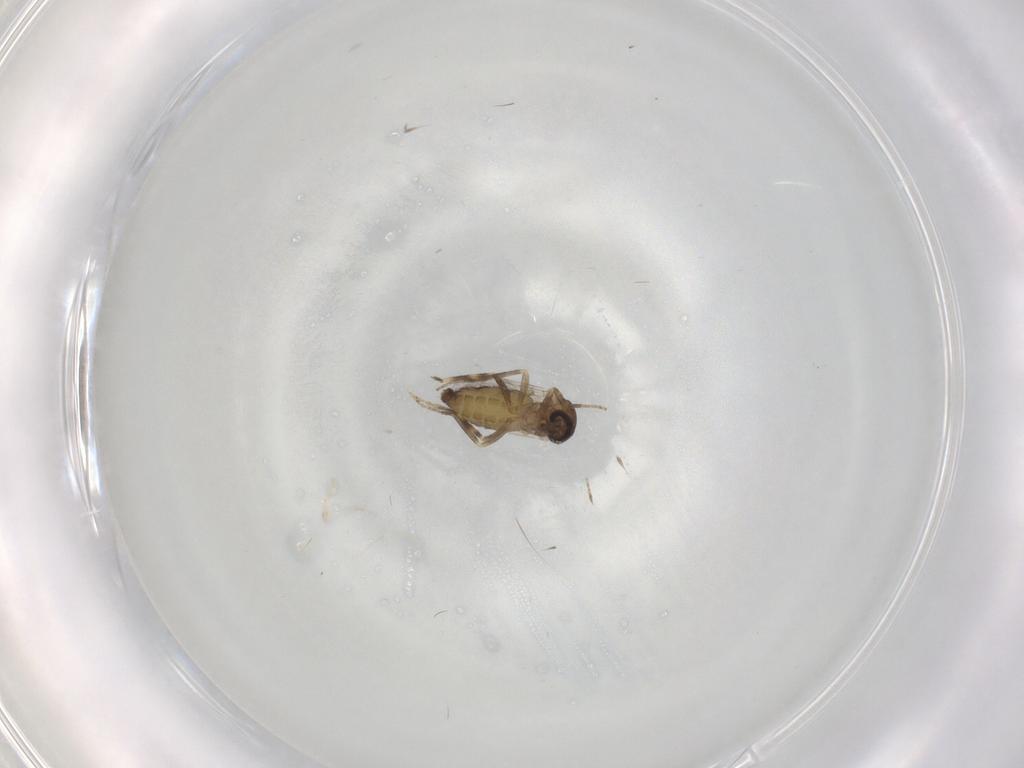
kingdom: Animalia
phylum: Arthropoda
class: Insecta
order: Diptera
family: Ceratopogonidae
